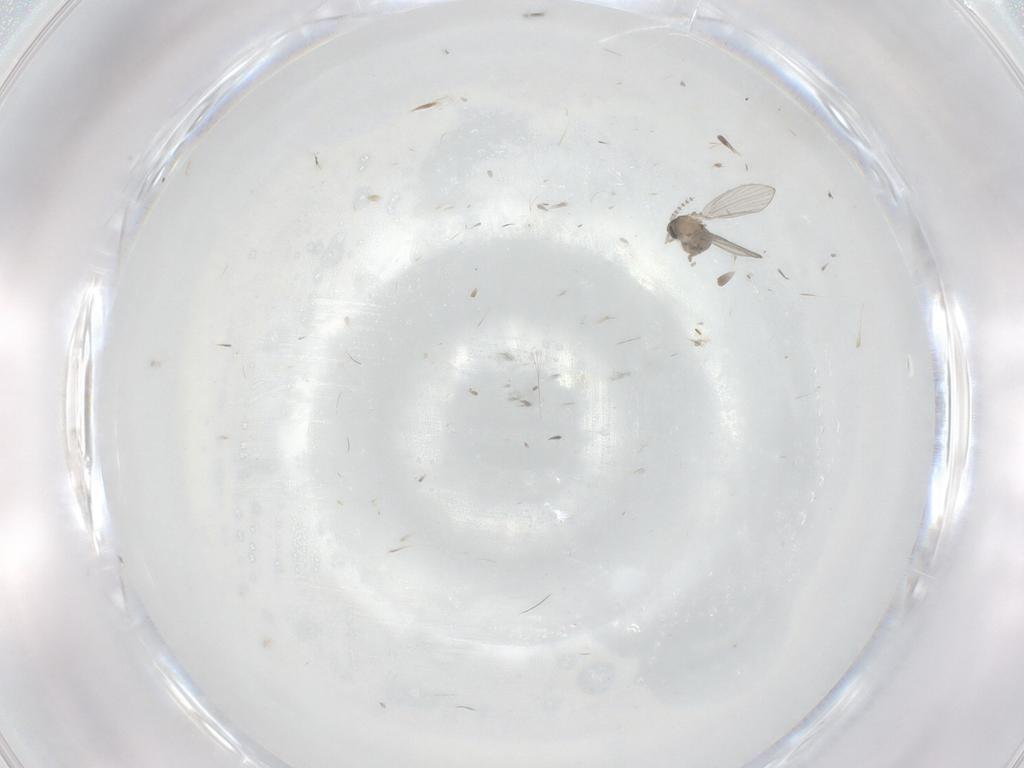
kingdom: Animalia
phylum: Arthropoda
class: Insecta
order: Diptera
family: Psychodidae
